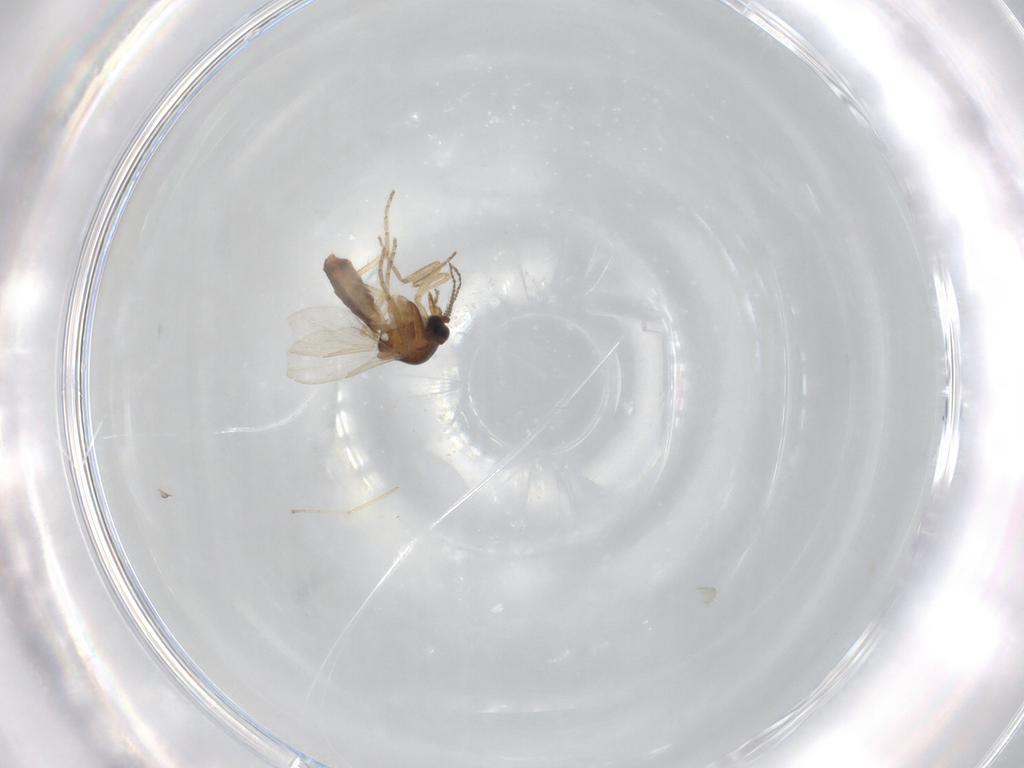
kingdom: Animalia
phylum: Arthropoda
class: Insecta
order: Diptera
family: Ceratopogonidae
